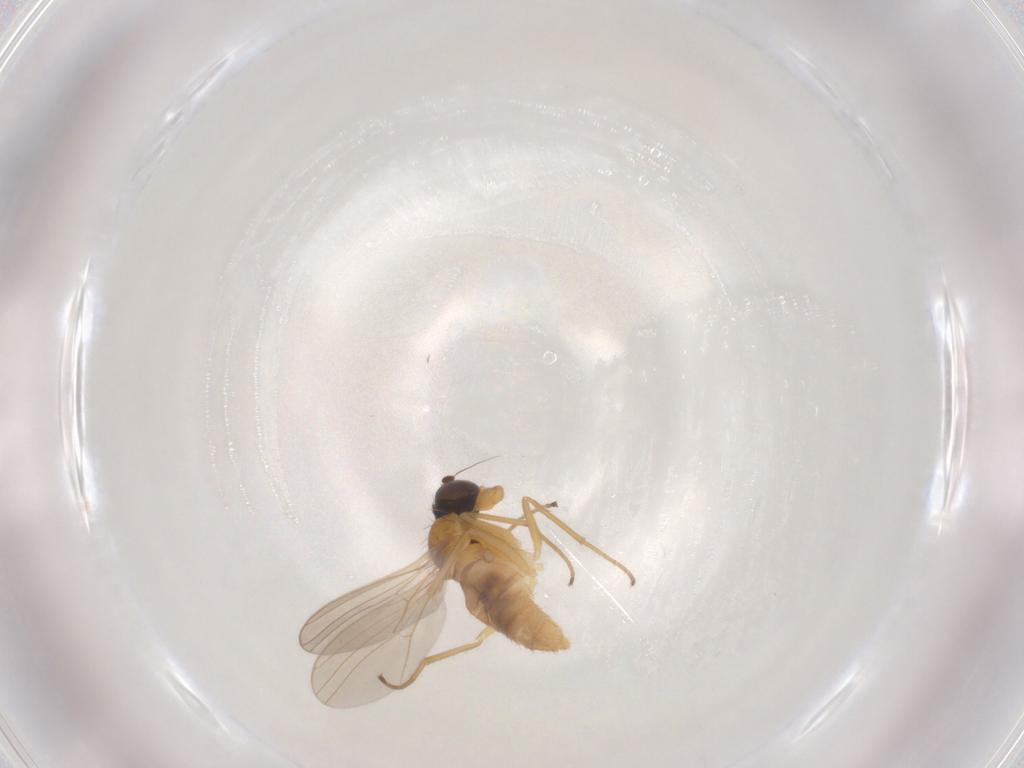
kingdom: Animalia
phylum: Arthropoda
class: Insecta
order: Diptera
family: Dolichopodidae
